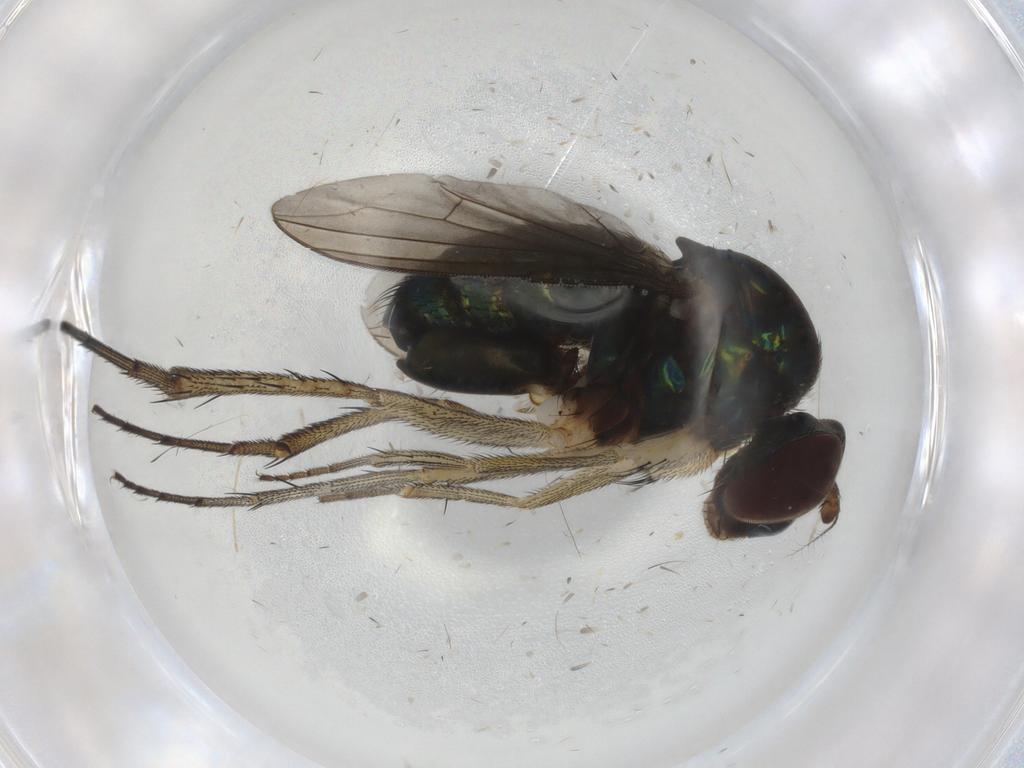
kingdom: Animalia
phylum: Arthropoda
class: Insecta
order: Diptera
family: Dolichopodidae
